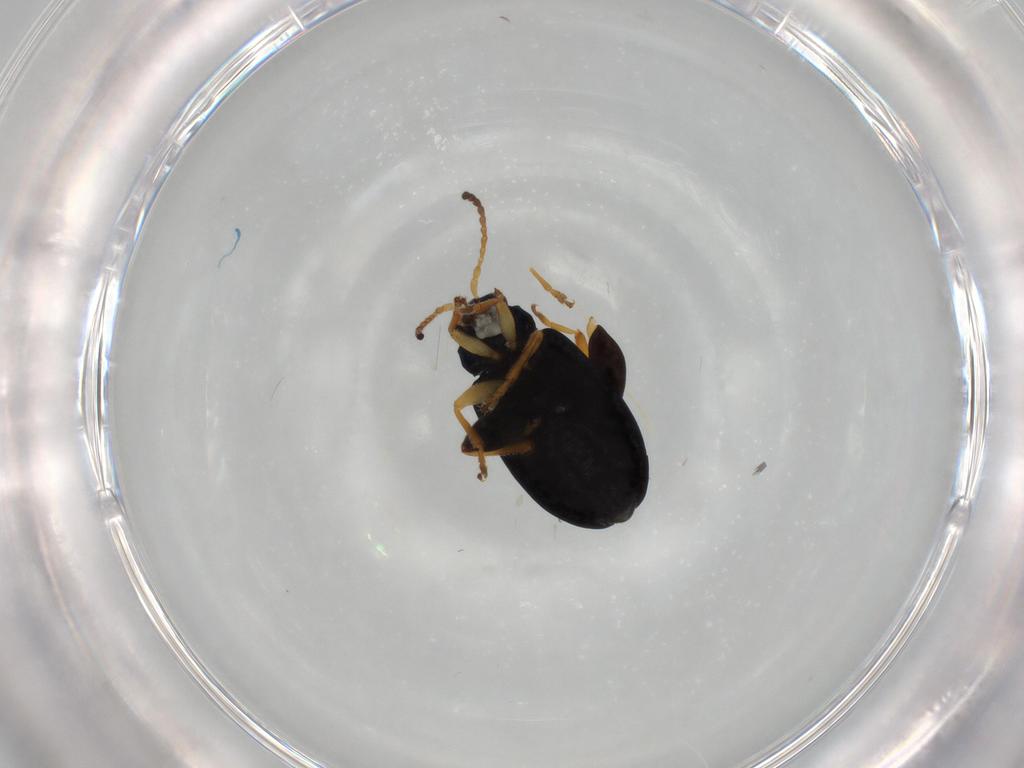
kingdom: Animalia
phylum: Arthropoda
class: Insecta
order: Coleoptera
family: Chrysomelidae
